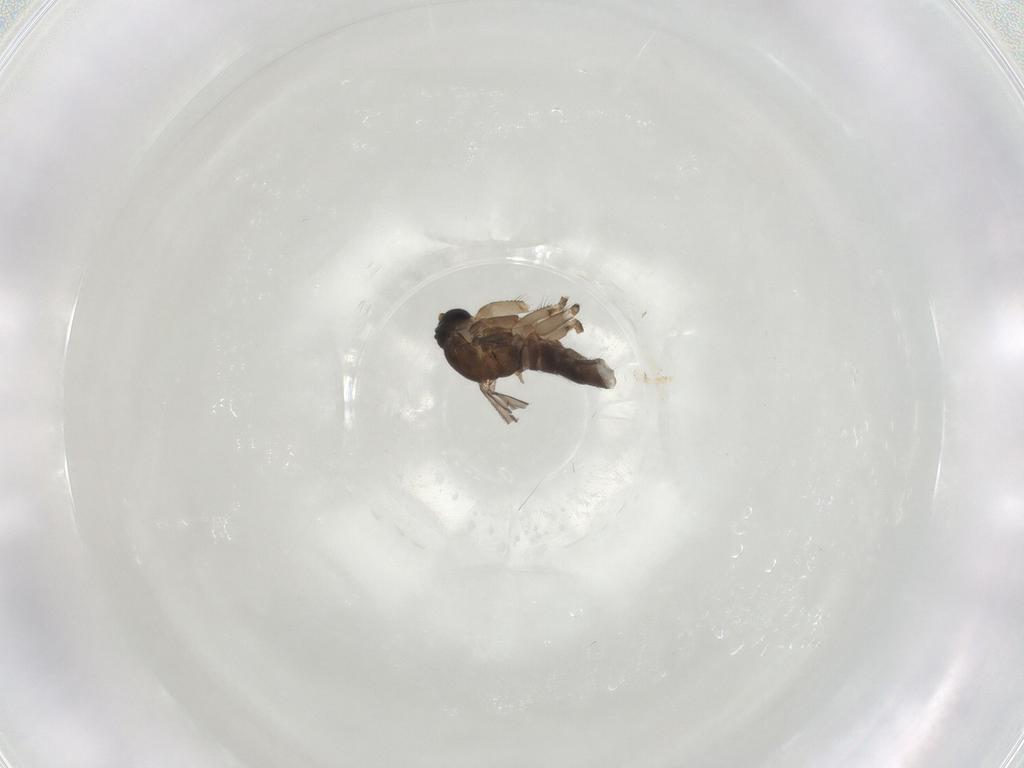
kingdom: Animalia
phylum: Arthropoda
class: Insecta
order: Diptera
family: Sciaridae
